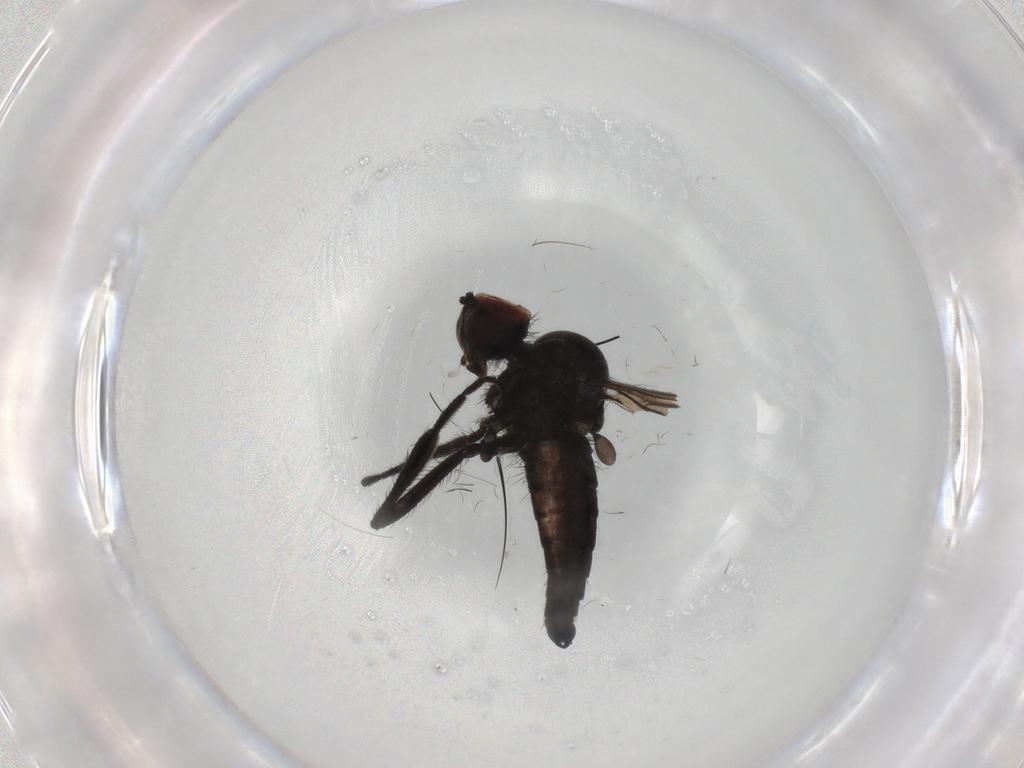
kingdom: Animalia
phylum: Arthropoda
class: Insecta
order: Diptera
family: Hybotidae
